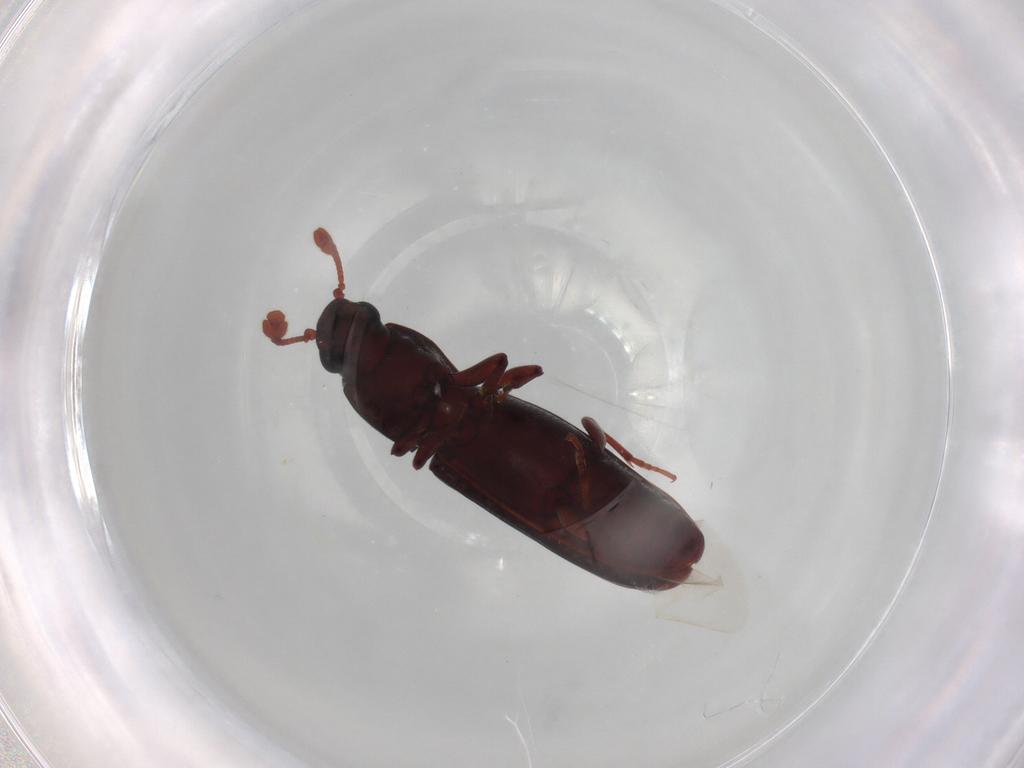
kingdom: Animalia
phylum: Arthropoda
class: Insecta
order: Coleoptera
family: Bothrideridae
